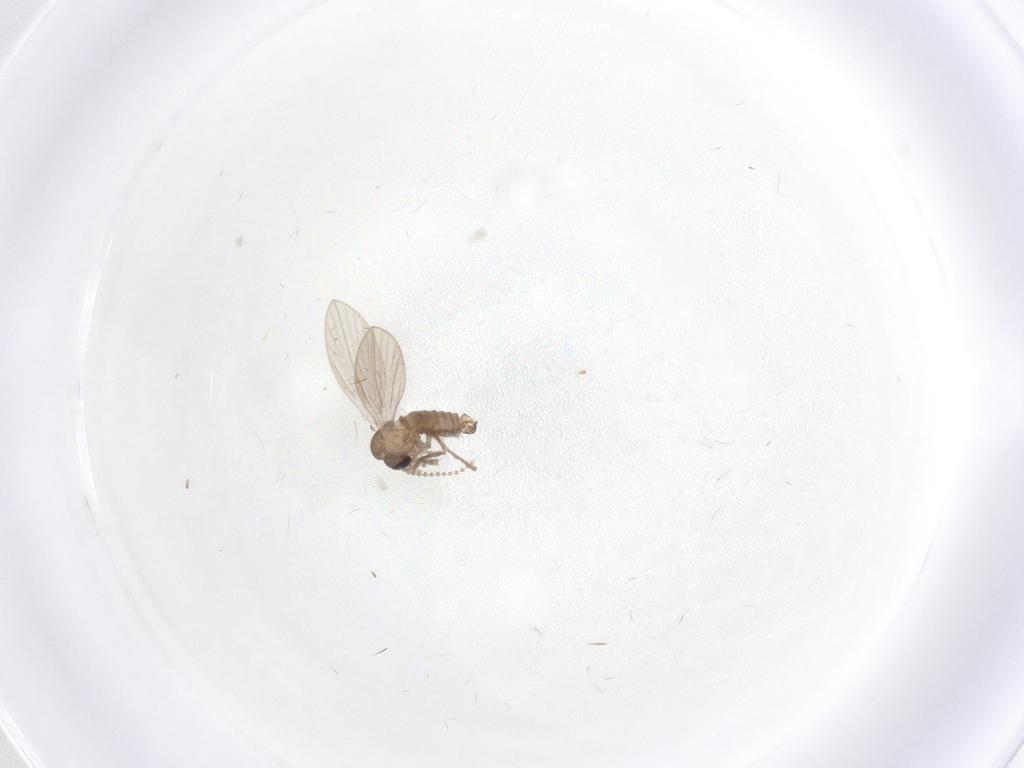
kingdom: Animalia
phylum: Arthropoda
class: Insecta
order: Diptera
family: Psychodidae
